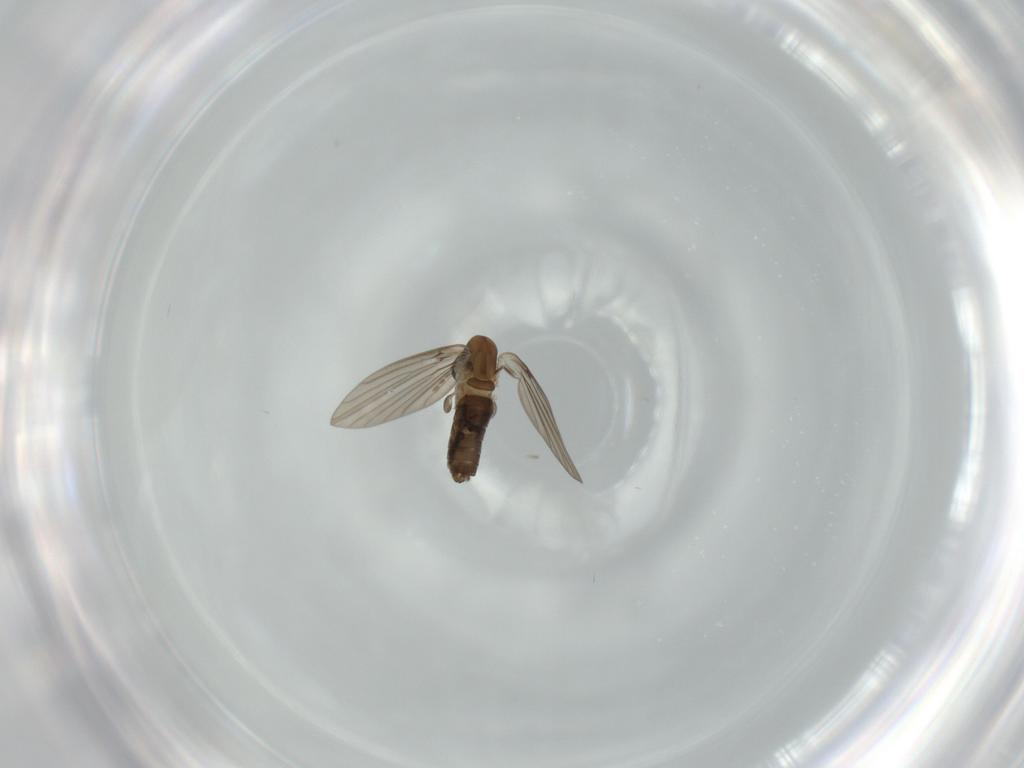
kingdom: Animalia
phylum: Arthropoda
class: Insecta
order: Diptera
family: Psychodidae
